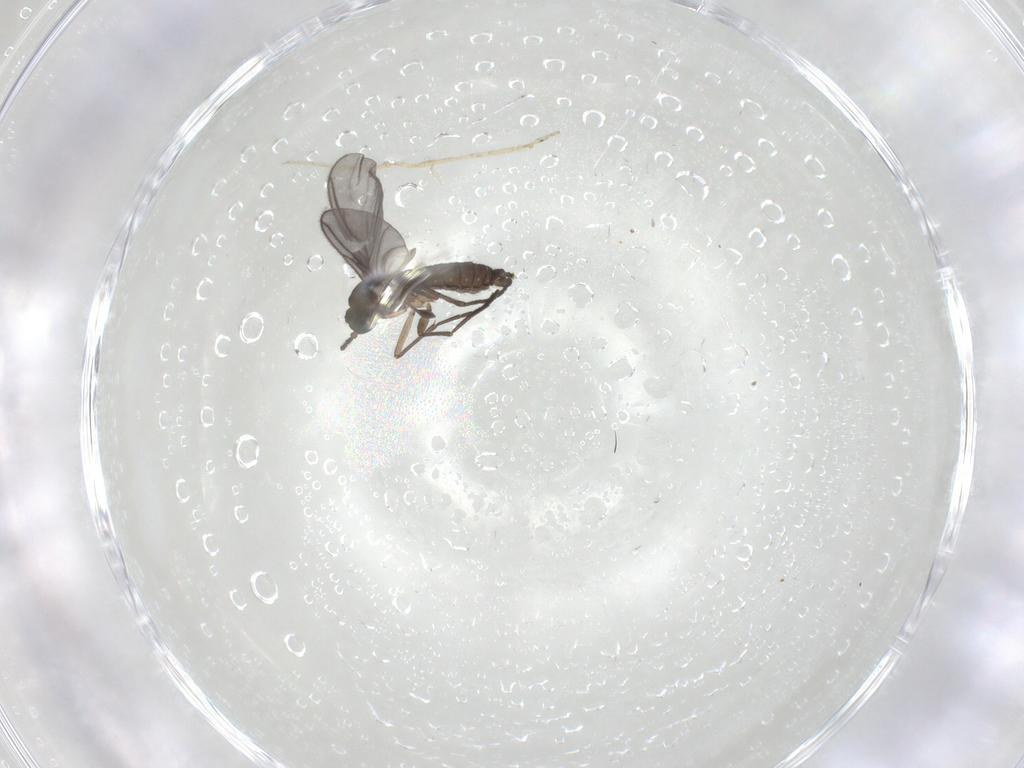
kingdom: Animalia
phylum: Arthropoda
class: Insecta
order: Diptera
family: Sciaridae
